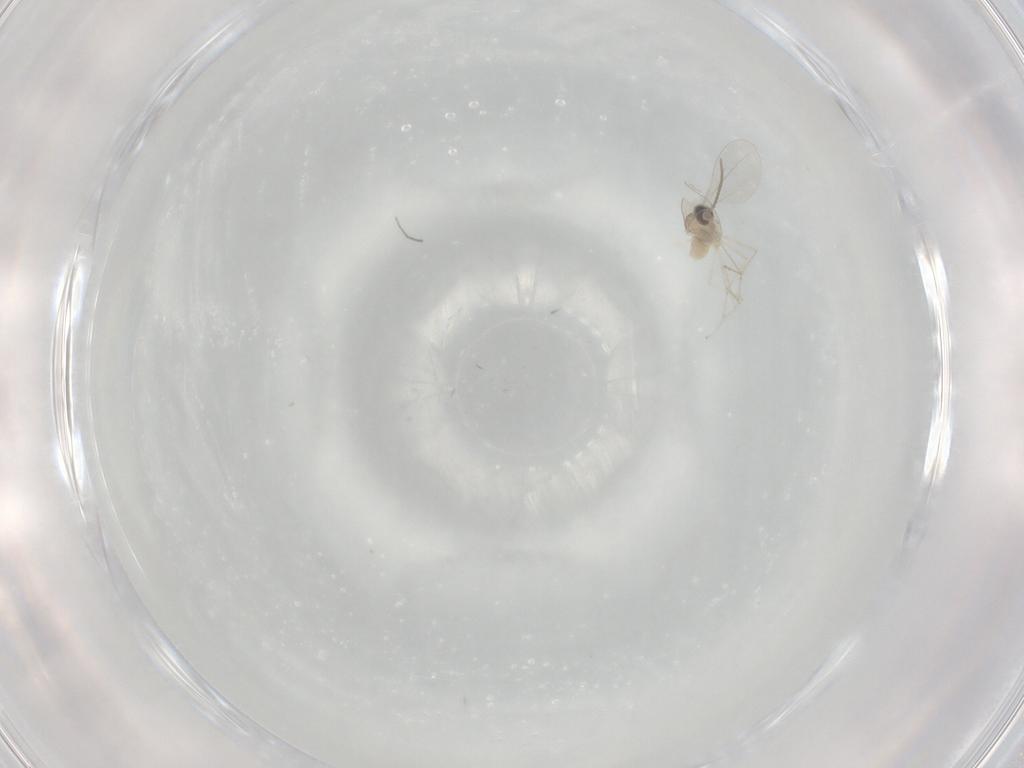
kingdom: Animalia
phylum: Arthropoda
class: Insecta
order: Diptera
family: Cecidomyiidae
